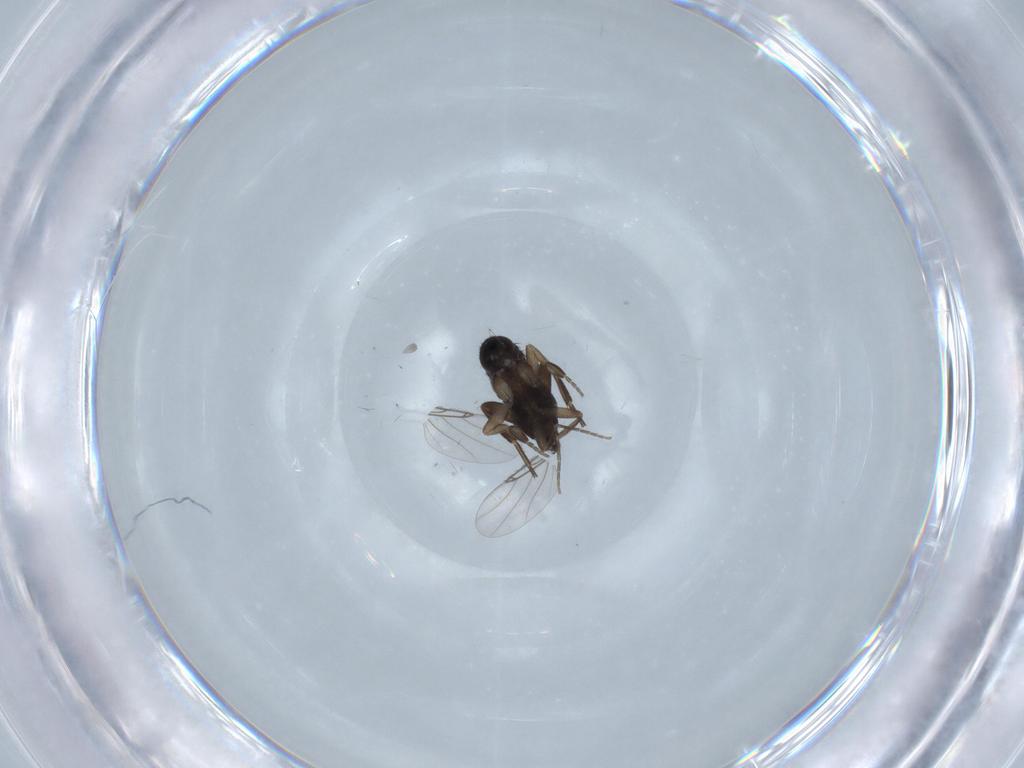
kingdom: Animalia
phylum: Arthropoda
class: Insecta
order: Diptera
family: Phoridae
